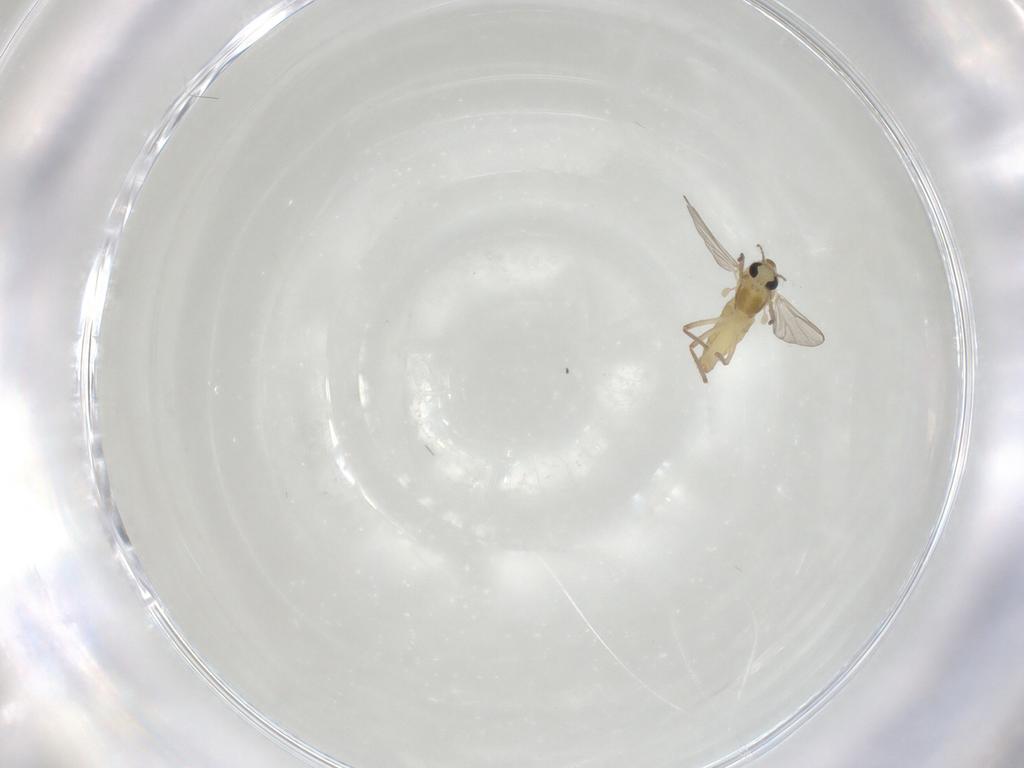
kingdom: Animalia
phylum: Arthropoda
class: Insecta
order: Diptera
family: Chironomidae
